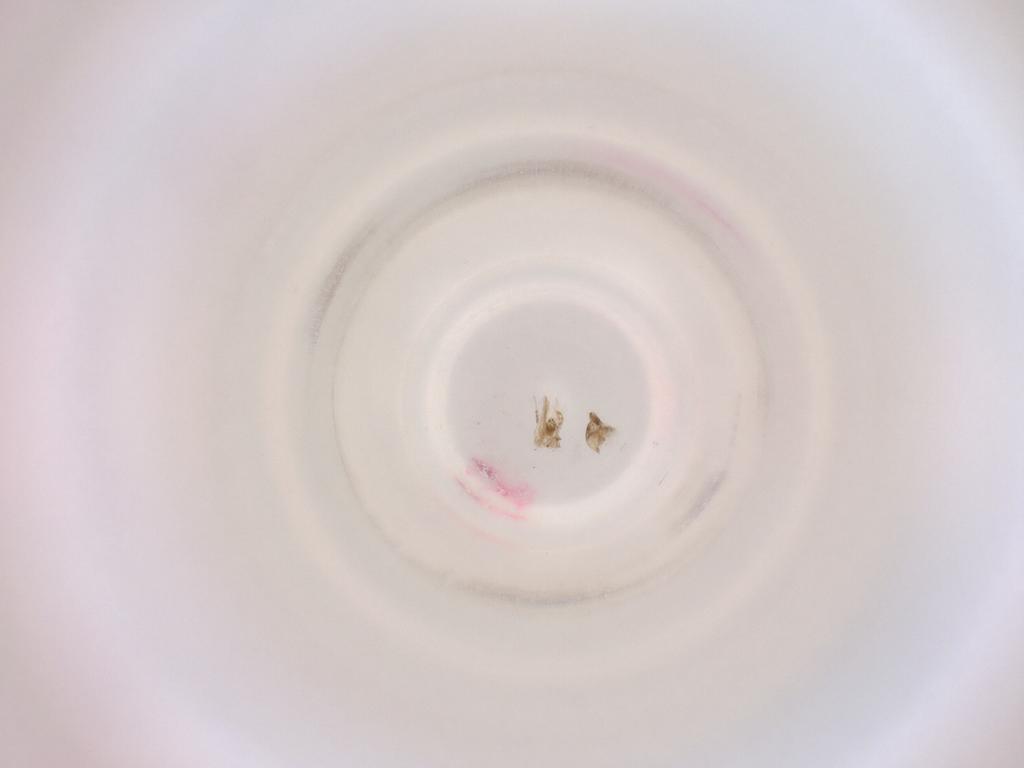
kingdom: Animalia
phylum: Arthropoda
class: Insecta
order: Diptera
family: Cecidomyiidae
